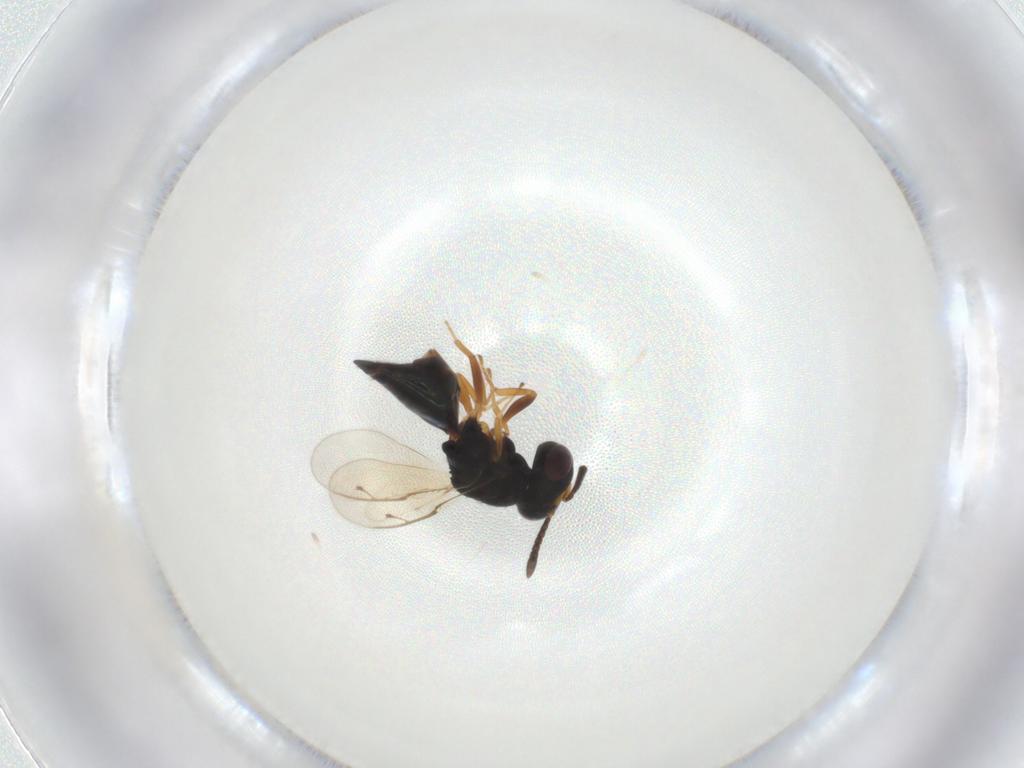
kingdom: Animalia
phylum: Arthropoda
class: Insecta
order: Hymenoptera
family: Pteromalidae
